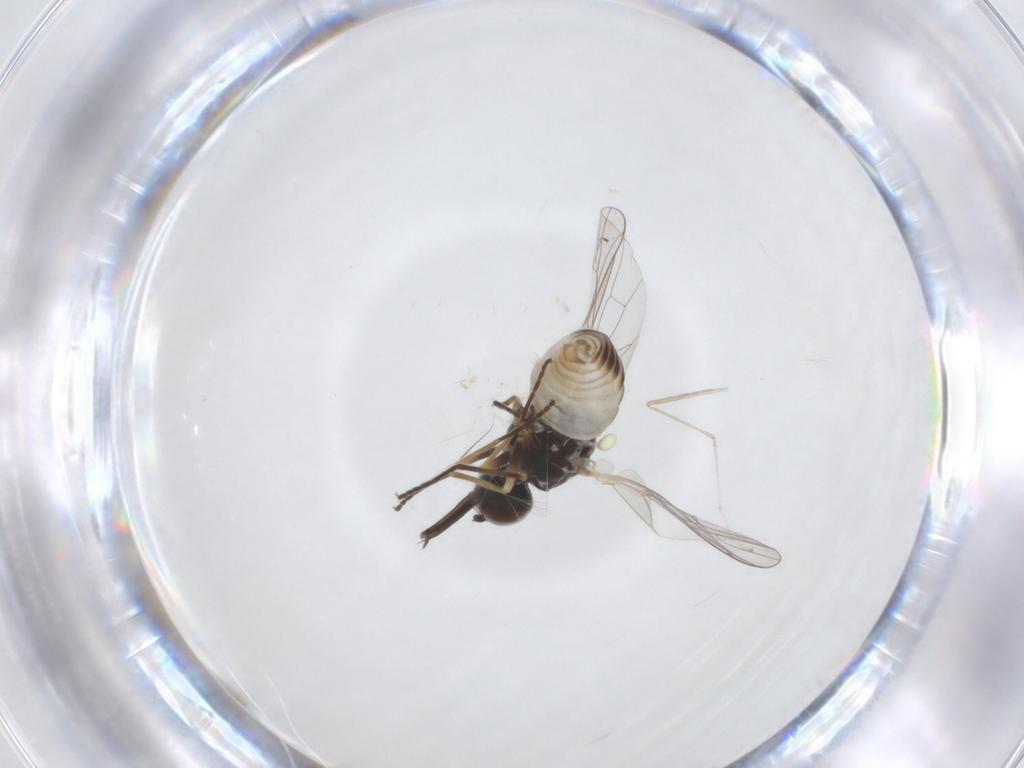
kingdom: Animalia
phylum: Arthropoda
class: Insecta
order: Diptera
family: Bombyliidae
